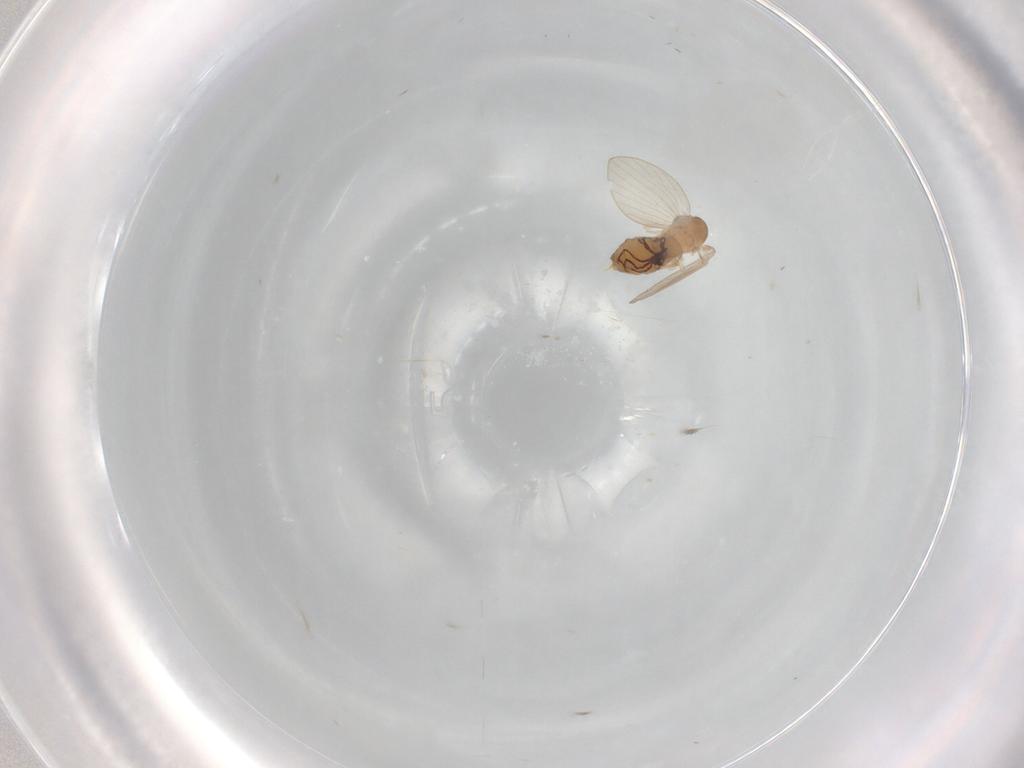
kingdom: Animalia
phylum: Arthropoda
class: Insecta
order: Diptera
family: Psychodidae
